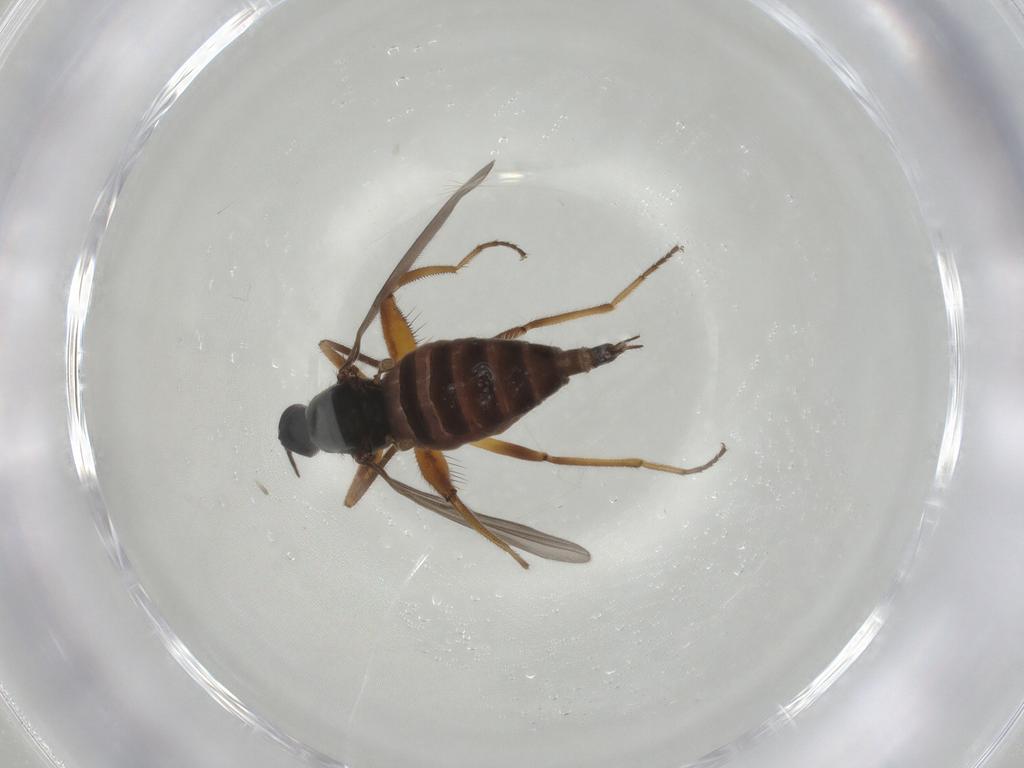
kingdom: Animalia
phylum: Arthropoda
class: Insecta
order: Diptera
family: Hybotidae
